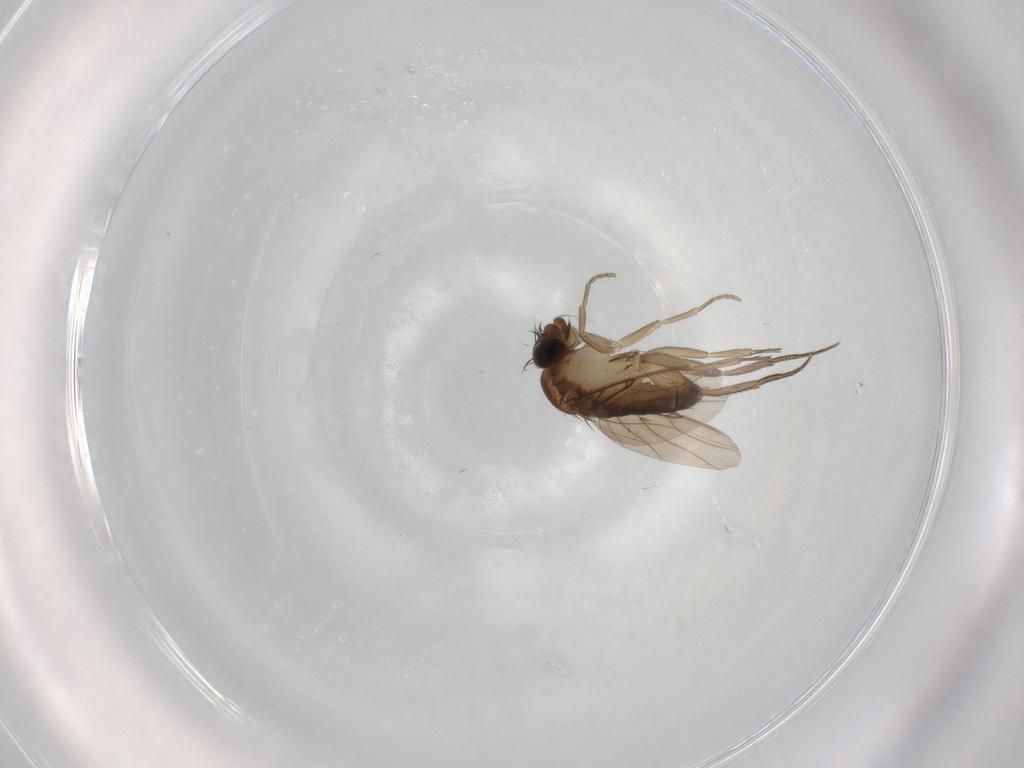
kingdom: Animalia
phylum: Arthropoda
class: Insecta
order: Diptera
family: Phoridae
